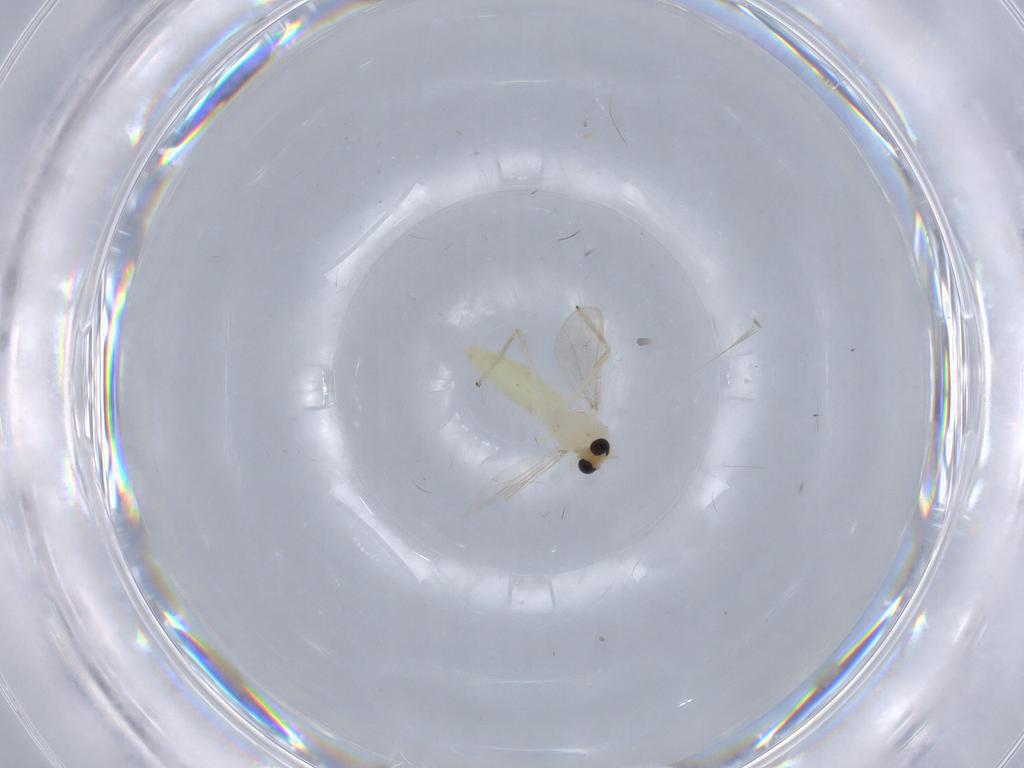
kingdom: Animalia
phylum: Arthropoda
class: Insecta
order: Diptera
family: Chironomidae
